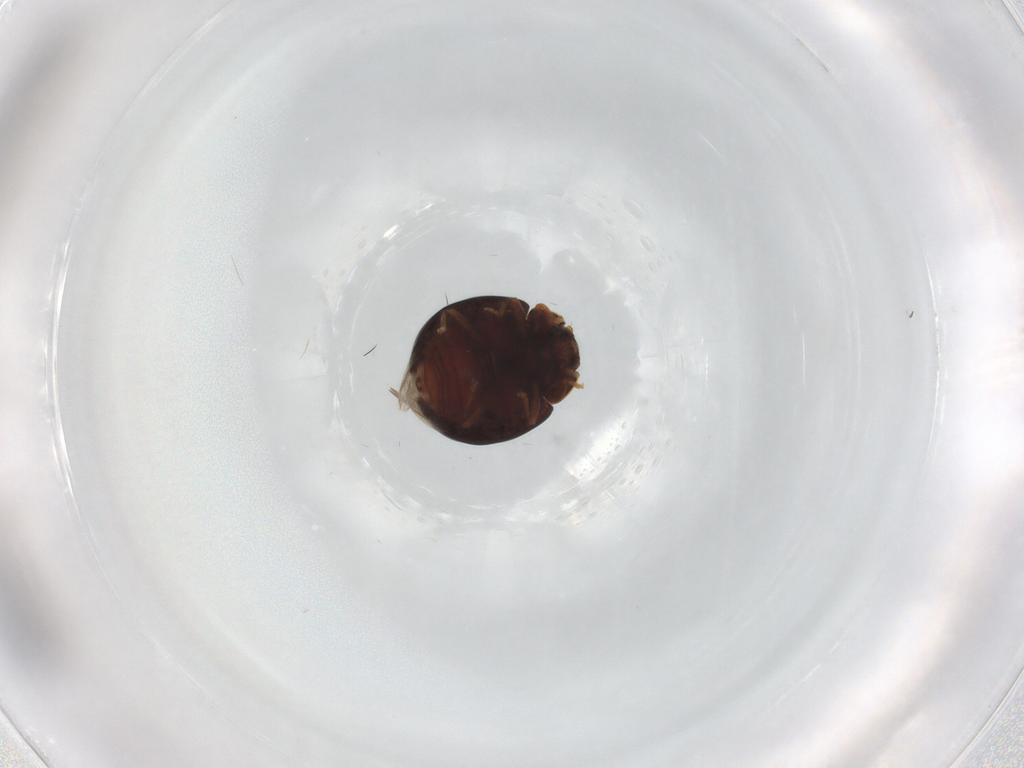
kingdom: Animalia
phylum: Arthropoda
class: Insecta
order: Coleoptera
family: Coccinellidae
